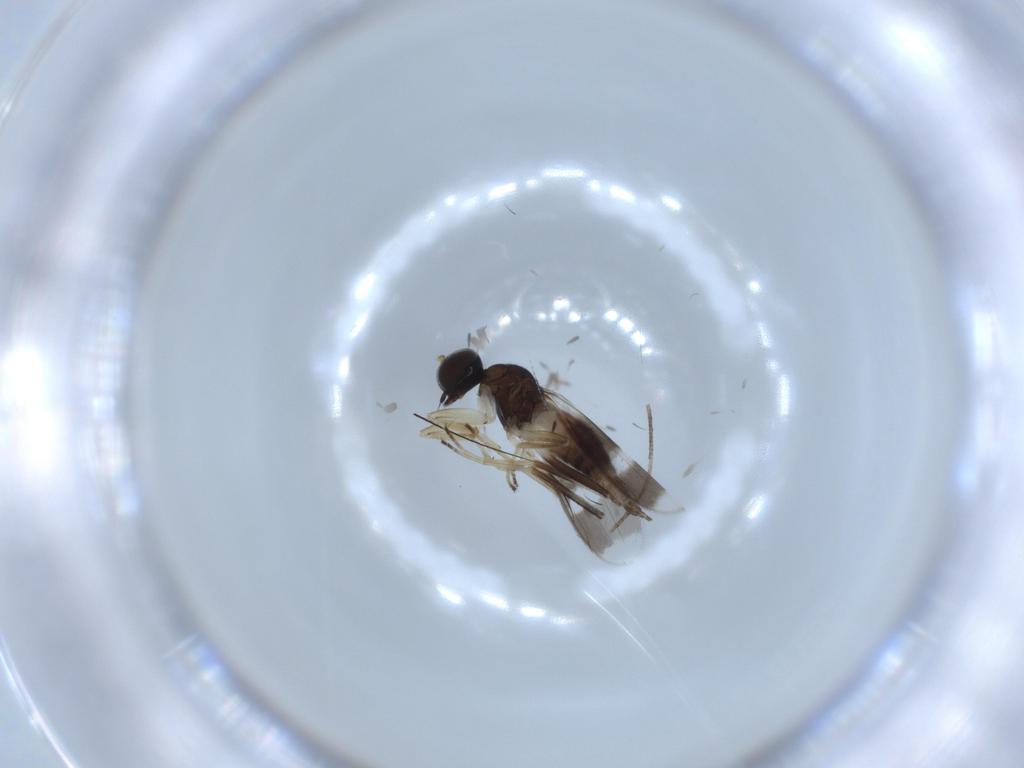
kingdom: Animalia
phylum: Arthropoda
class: Insecta
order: Diptera
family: Hybotidae
